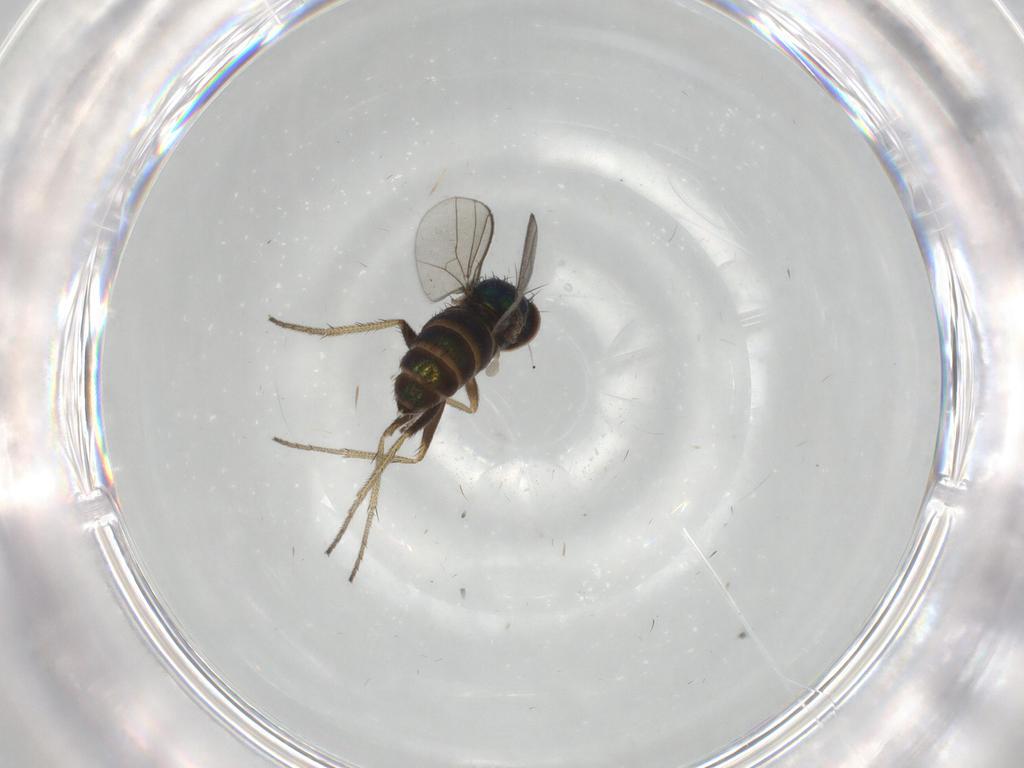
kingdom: Animalia
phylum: Arthropoda
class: Insecta
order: Diptera
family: Dolichopodidae
